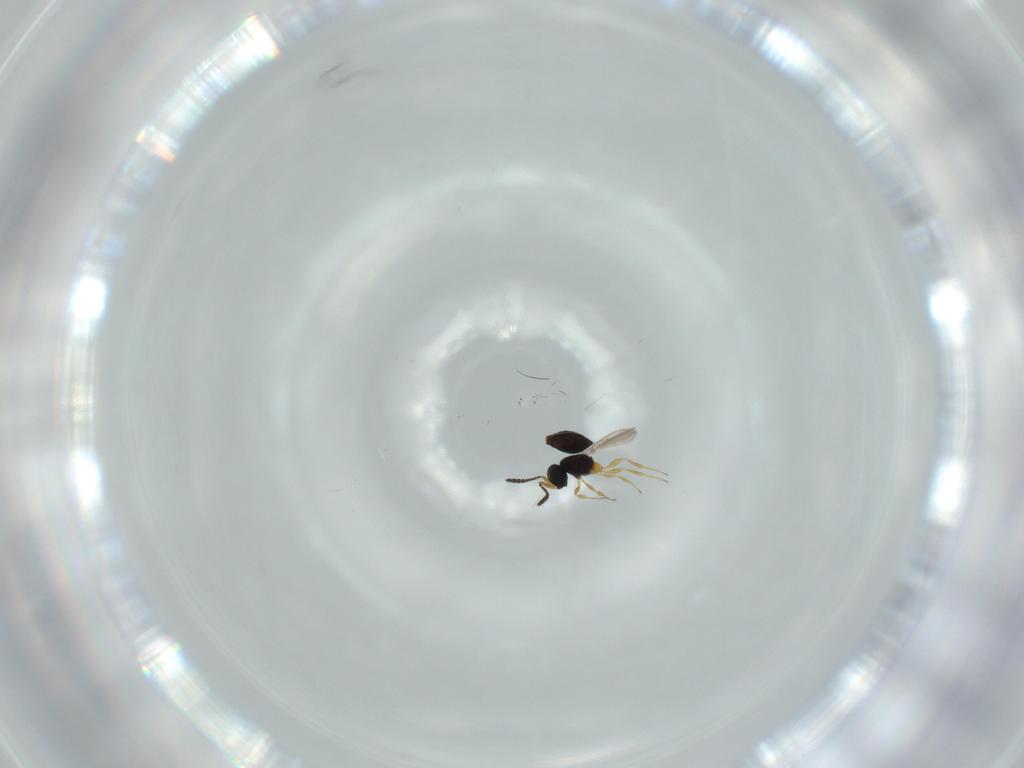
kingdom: Animalia
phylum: Arthropoda
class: Insecta
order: Hymenoptera
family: Scelionidae
